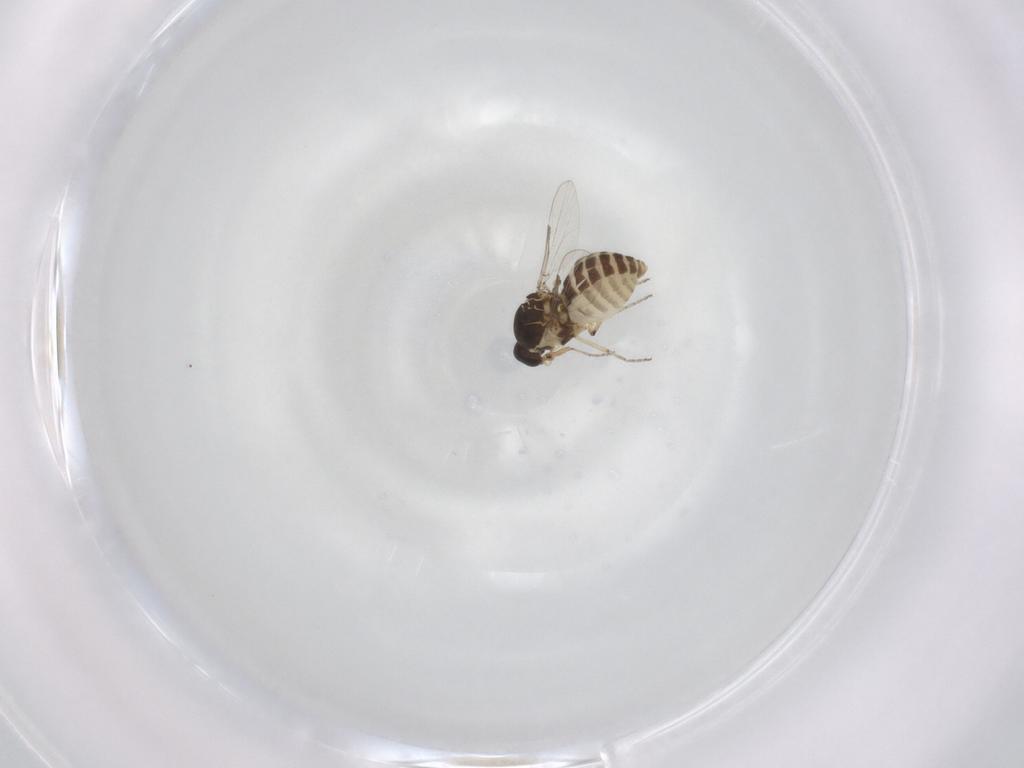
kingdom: Animalia
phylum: Arthropoda
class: Insecta
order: Diptera
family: Ceratopogonidae
